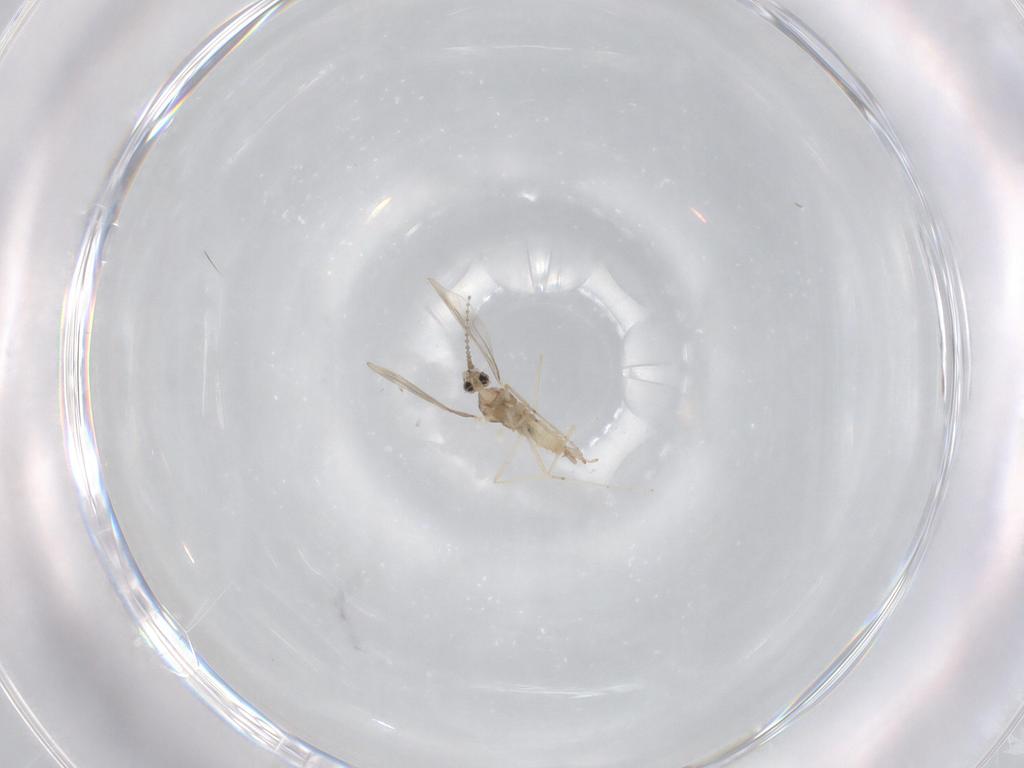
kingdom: Animalia
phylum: Arthropoda
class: Insecta
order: Diptera
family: Cecidomyiidae
